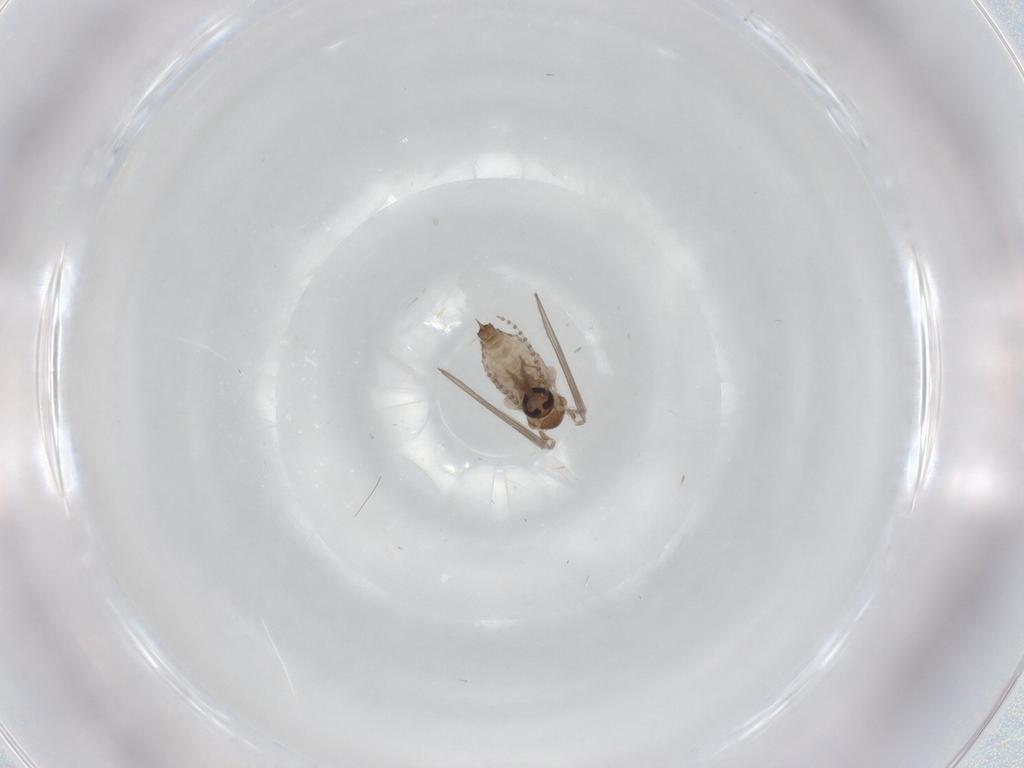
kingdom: Animalia
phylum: Arthropoda
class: Insecta
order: Diptera
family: Psychodidae
